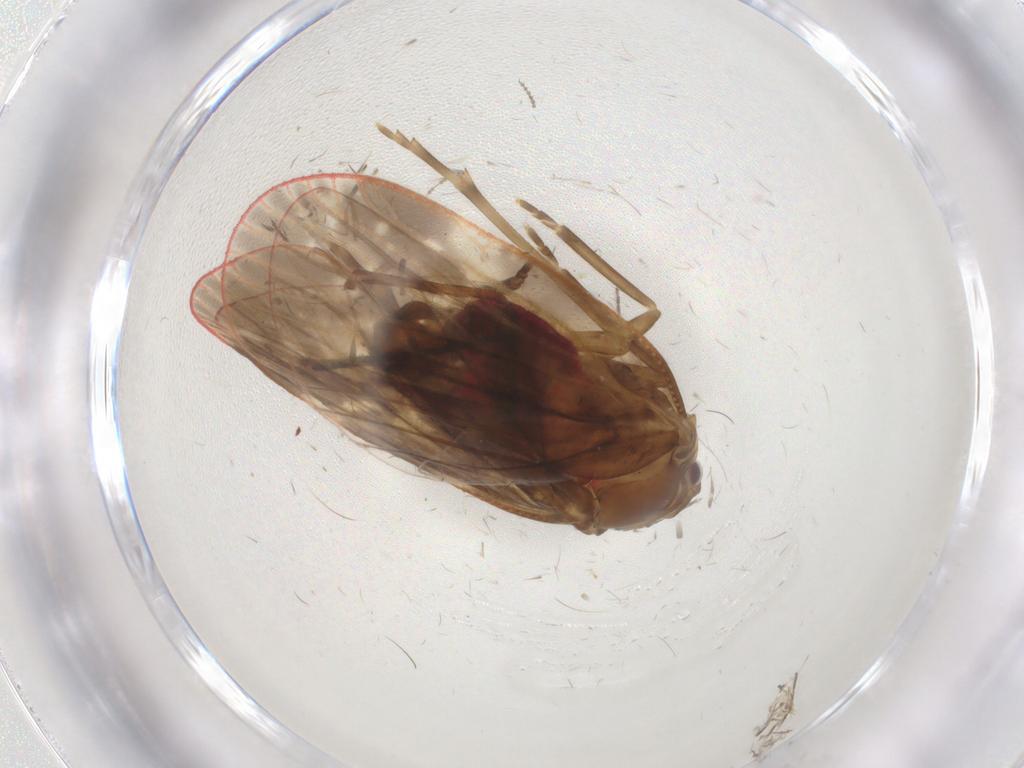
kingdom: Animalia
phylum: Arthropoda
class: Insecta
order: Hemiptera
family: Achilidae
